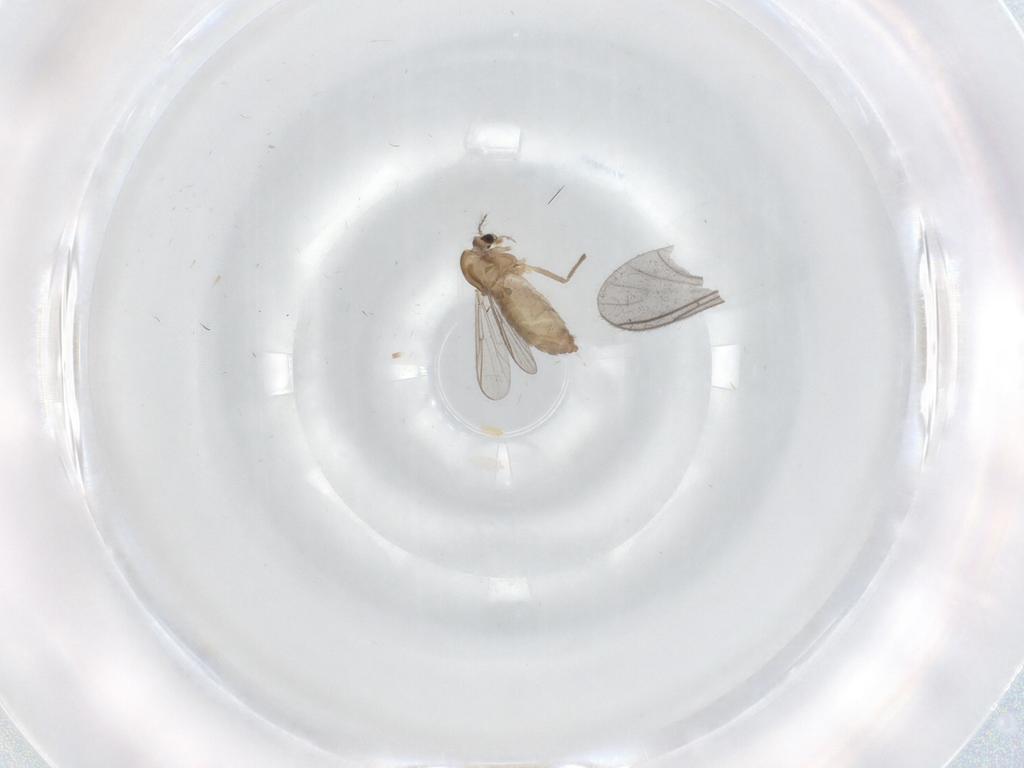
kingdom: Animalia
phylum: Arthropoda
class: Insecta
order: Diptera
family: Chironomidae
